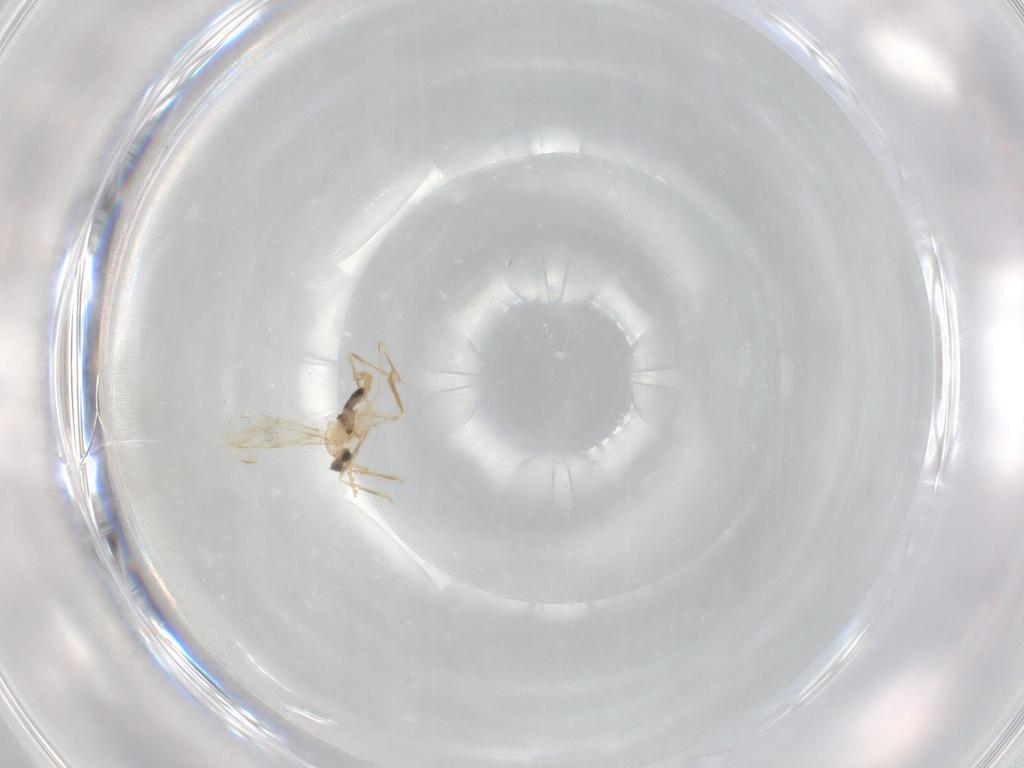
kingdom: Animalia
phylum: Arthropoda
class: Insecta
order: Diptera
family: Cecidomyiidae
